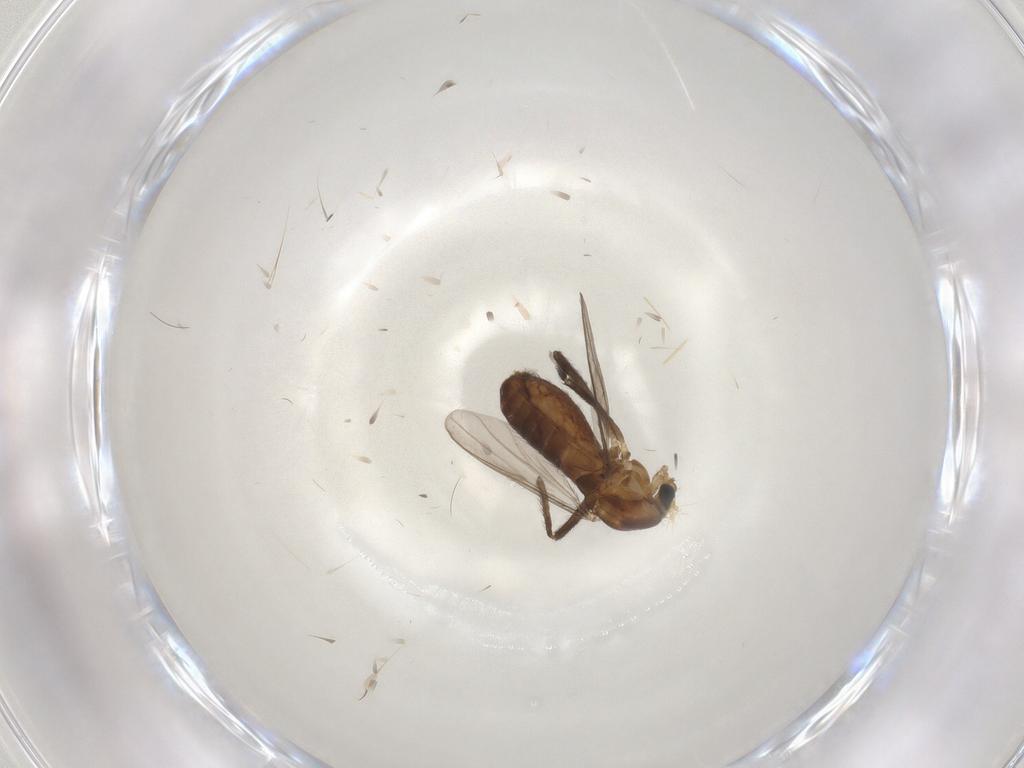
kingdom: Animalia
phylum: Arthropoda
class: Insecta
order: Diptera
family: Chironomidae
